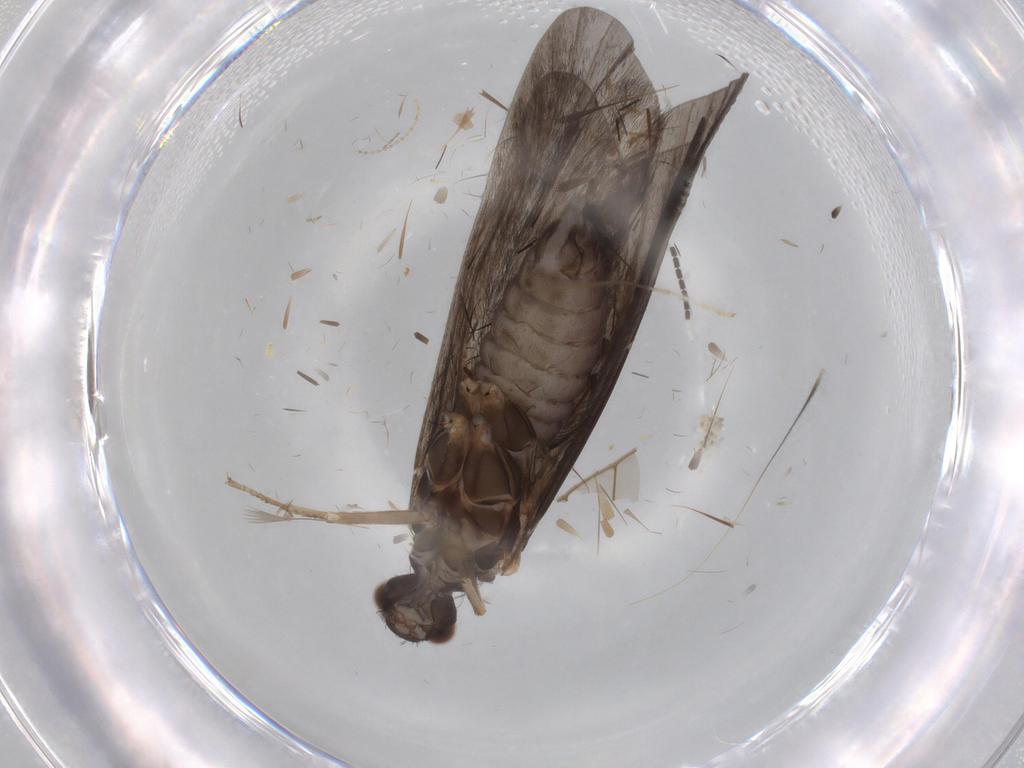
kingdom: Animalia
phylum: Arthropoda
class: Insecta
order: Trichoptera
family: Hydropsychidae
